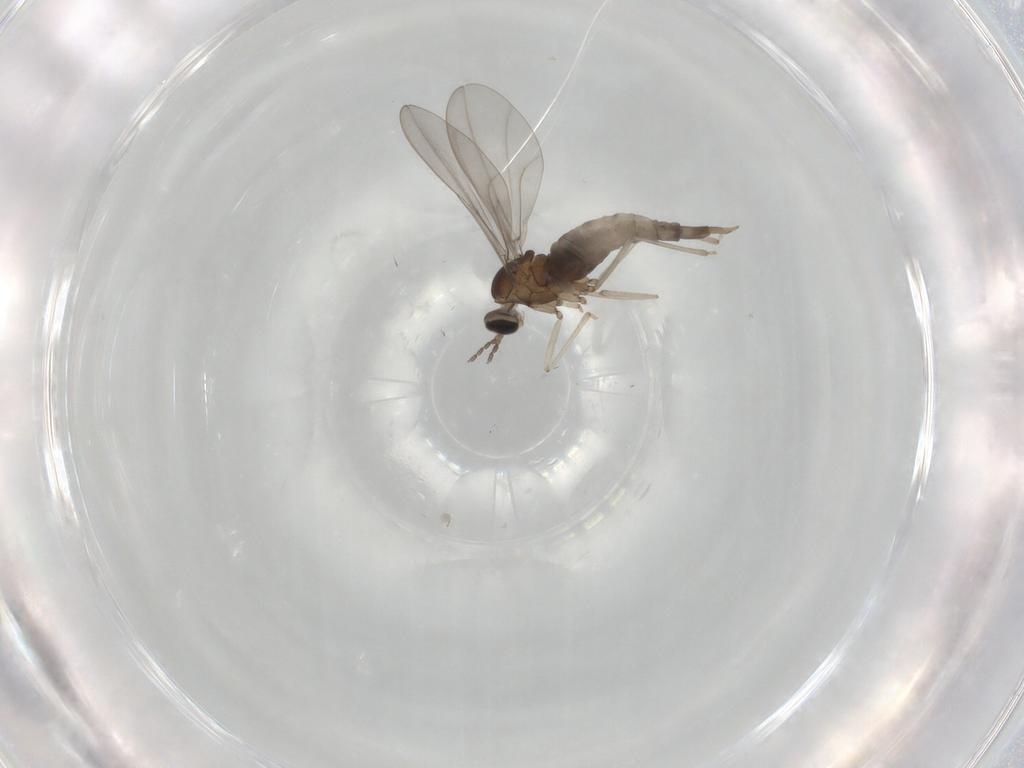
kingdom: Animalia
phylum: Arthropoda
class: Insecta
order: Diptera
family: Cecidomyiidae
